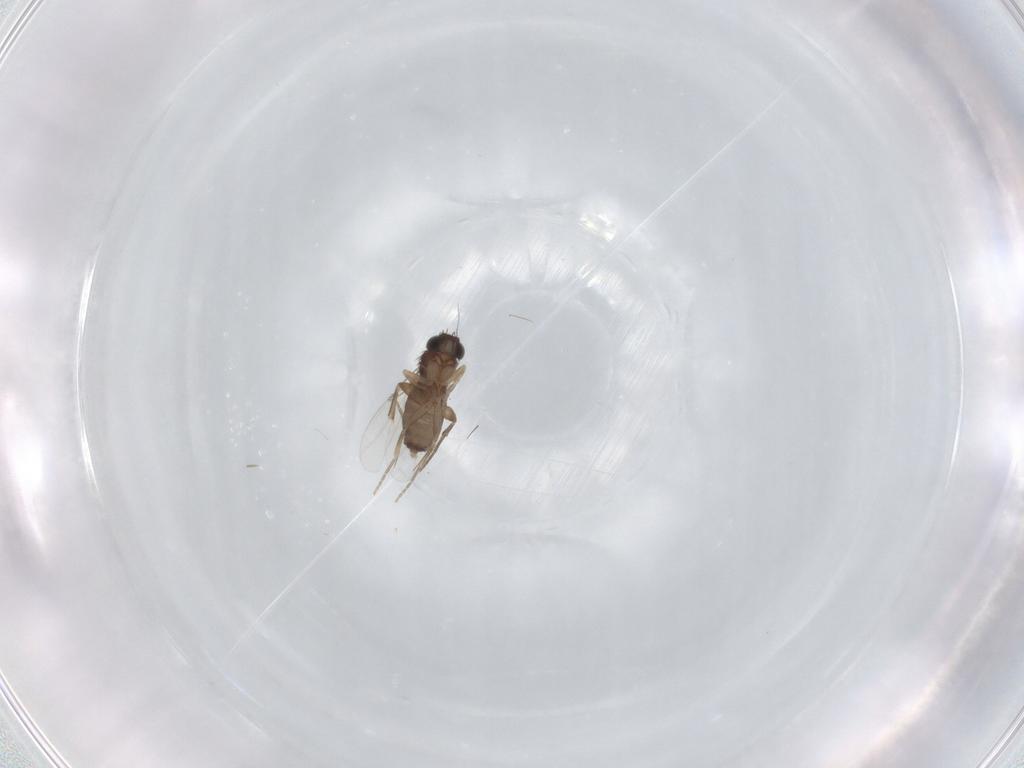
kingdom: Animalia
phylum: Arthropoda
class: Insecta
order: Diptera
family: Phoridae
